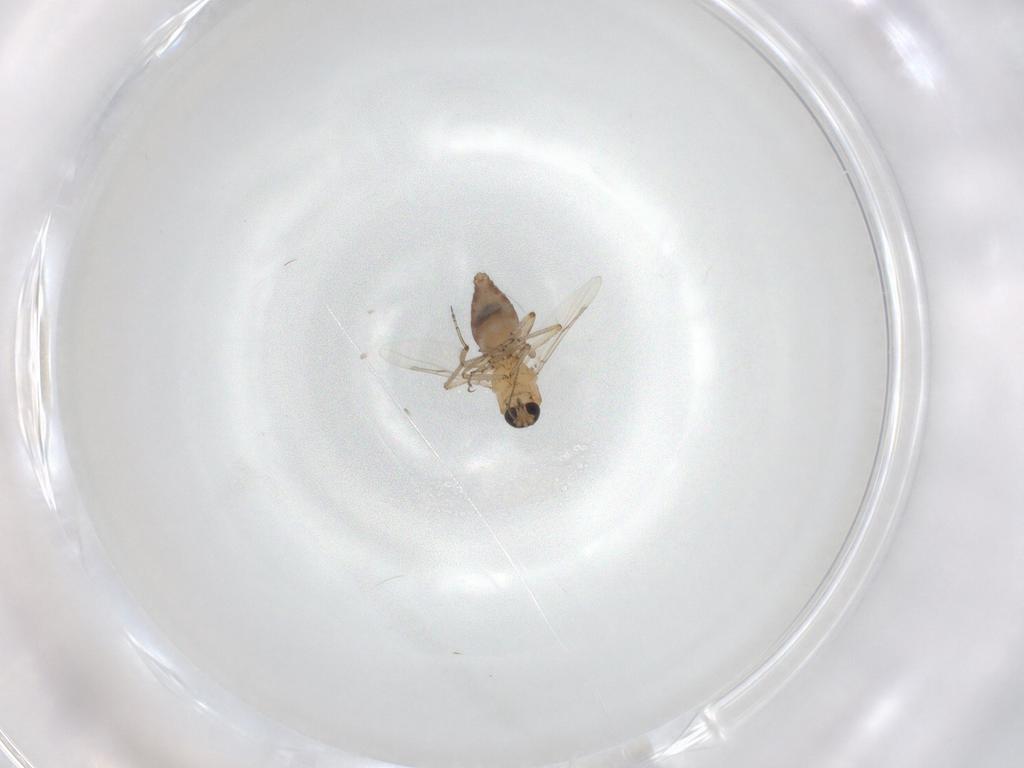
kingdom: Animalia
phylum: Arthropoda
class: Insecta
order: Diptera
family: Ceratopogonidae
